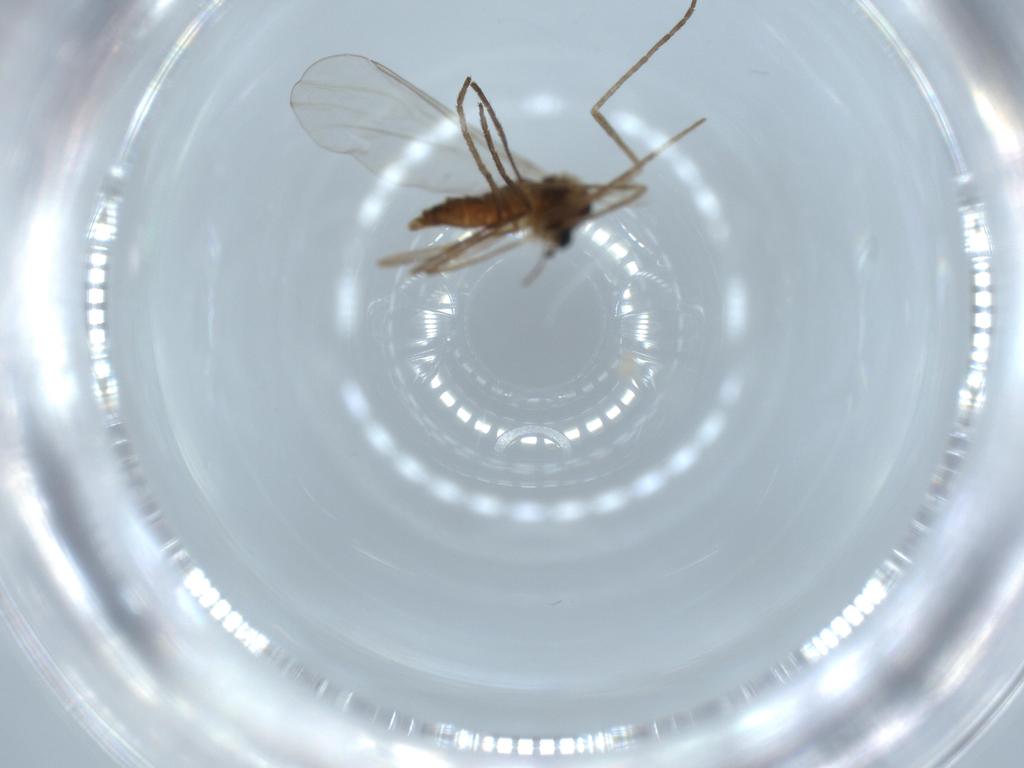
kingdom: Animalia
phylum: Arthropoda
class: Insecta
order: Diptera
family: Syrphidae
